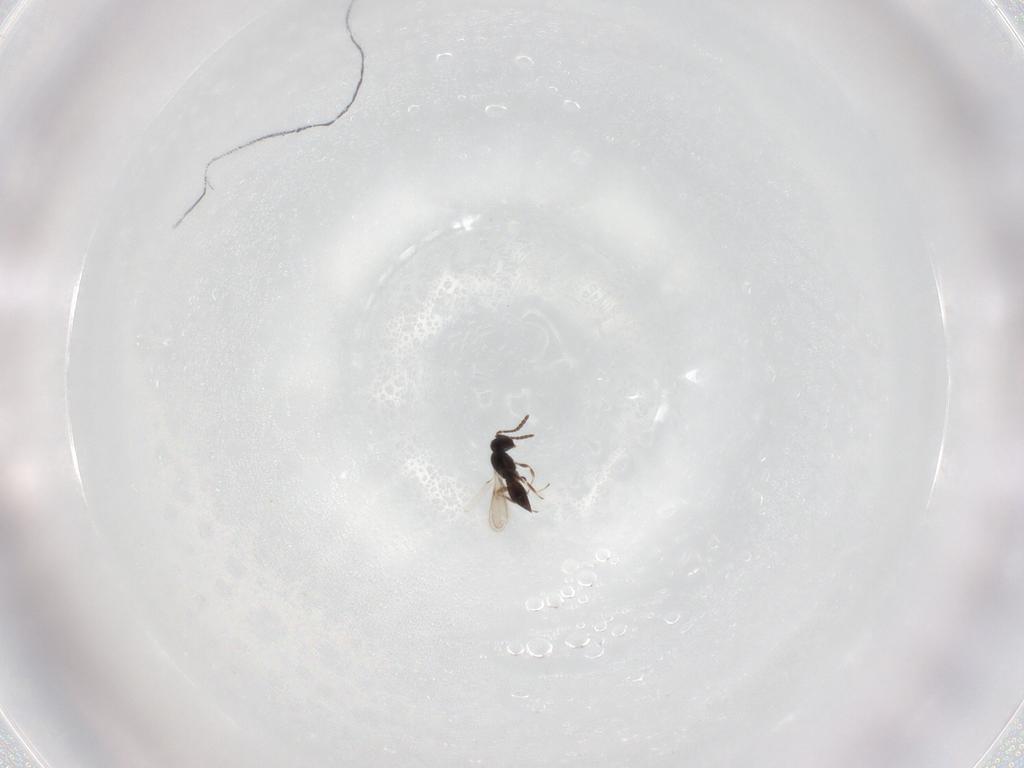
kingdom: Animalia
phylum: Arthropoda
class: Insecta
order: Hymenoptera
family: Scelionidae
